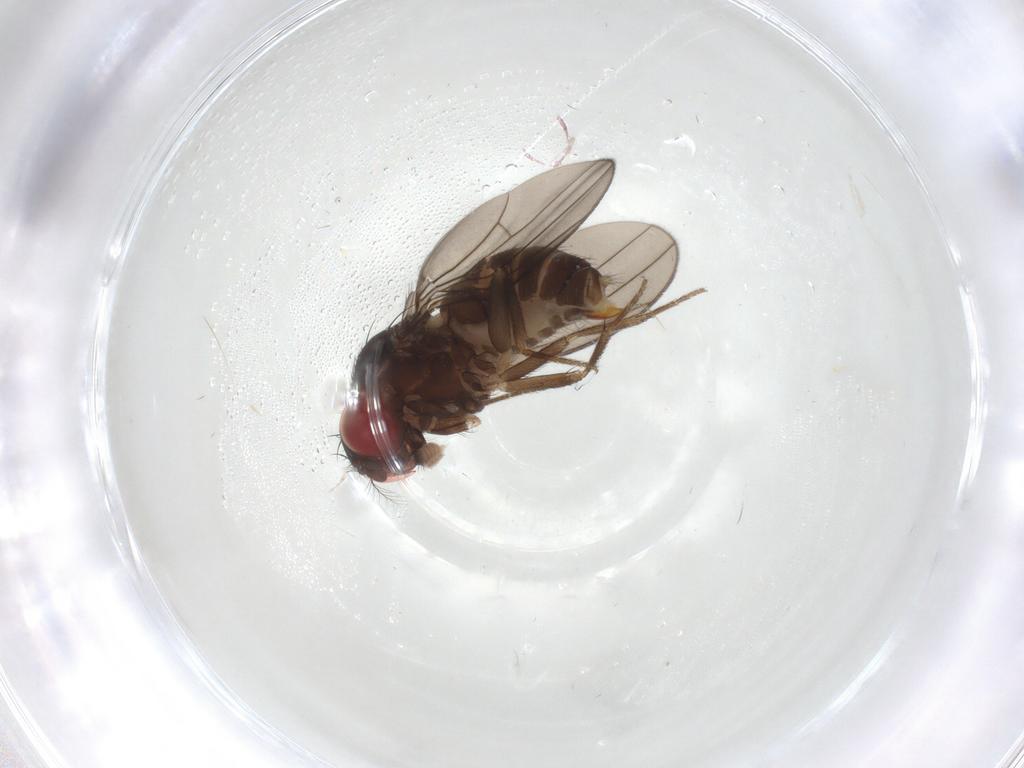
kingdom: Animalia
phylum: Arthropoda
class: Insecta
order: Diptera
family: Drosophilidae
